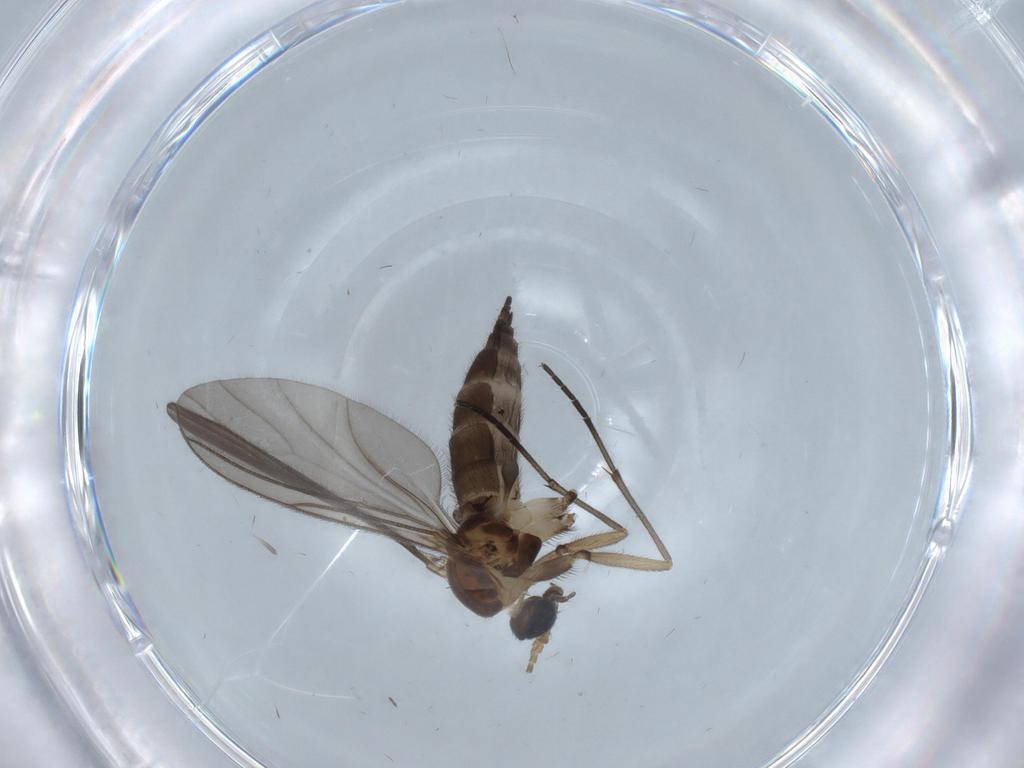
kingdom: Animalia
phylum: Arthropoda
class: Insecta
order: Diptera
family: Sciaridae
